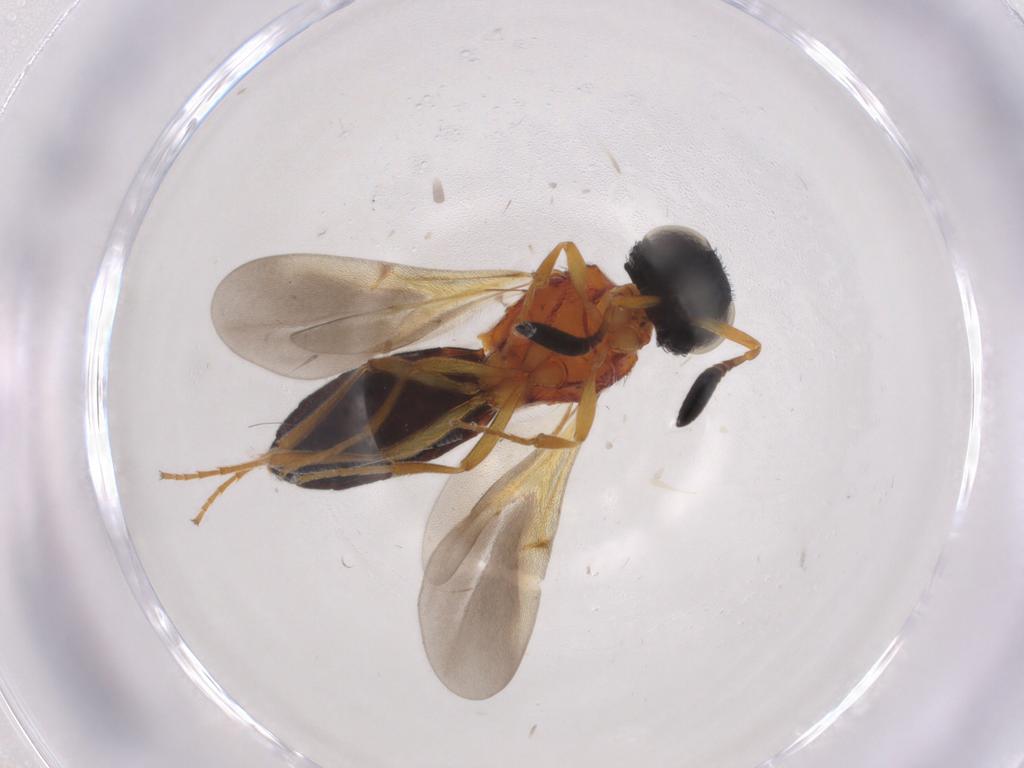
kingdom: Animalia
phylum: Arthropoda
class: Insecta
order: Hymenoptera
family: Scelionidae
